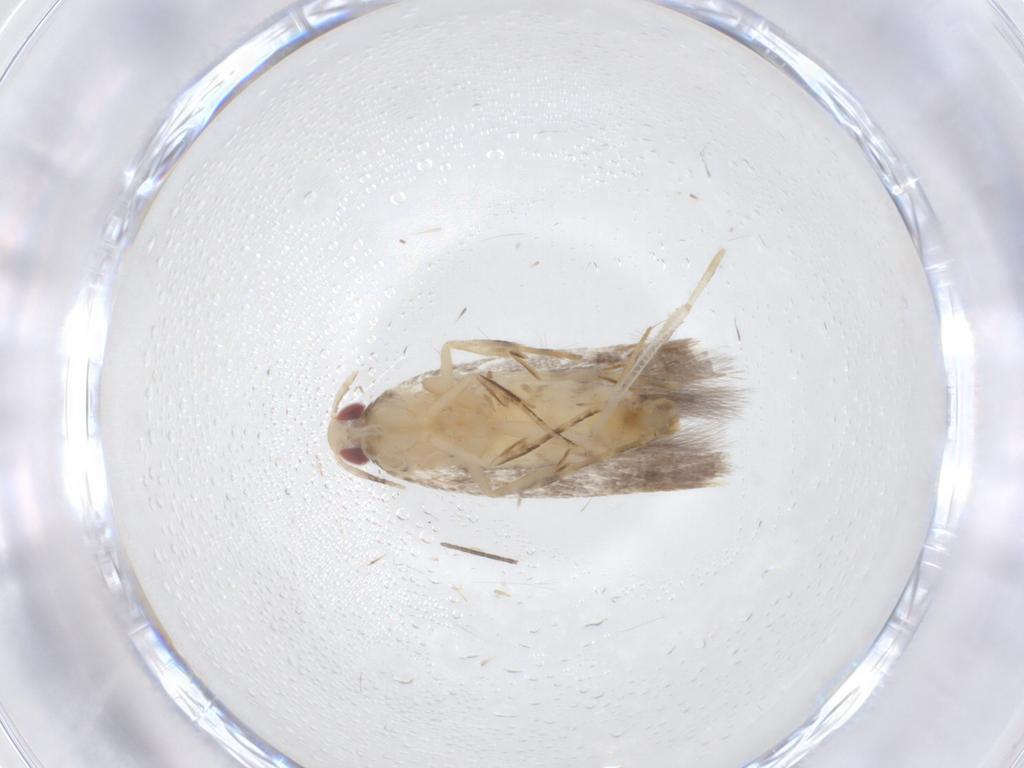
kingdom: Animalia
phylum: Arthropoda
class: Insecta
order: Lepidoptera
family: Cosmopterigidae
